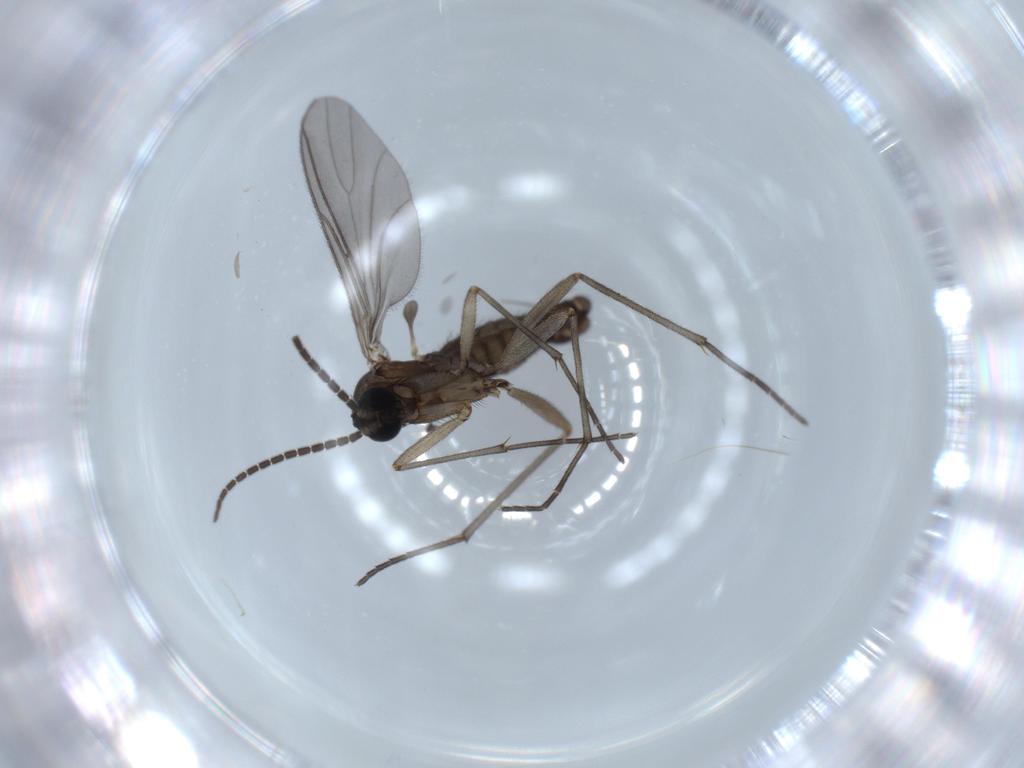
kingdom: Animalia
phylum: Arthropoda
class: Insecta
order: Diptera
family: Sciaridae
